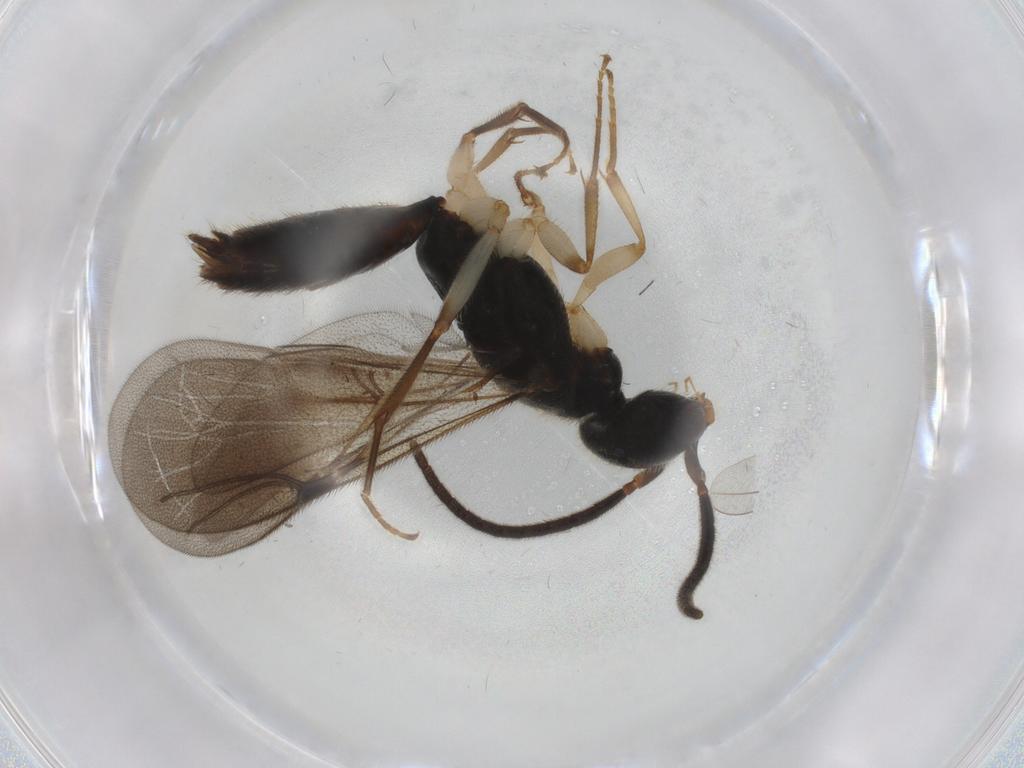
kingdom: Animalia
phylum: Arthropoda
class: Insecta
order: Hymenoptera
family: Bethylidae
